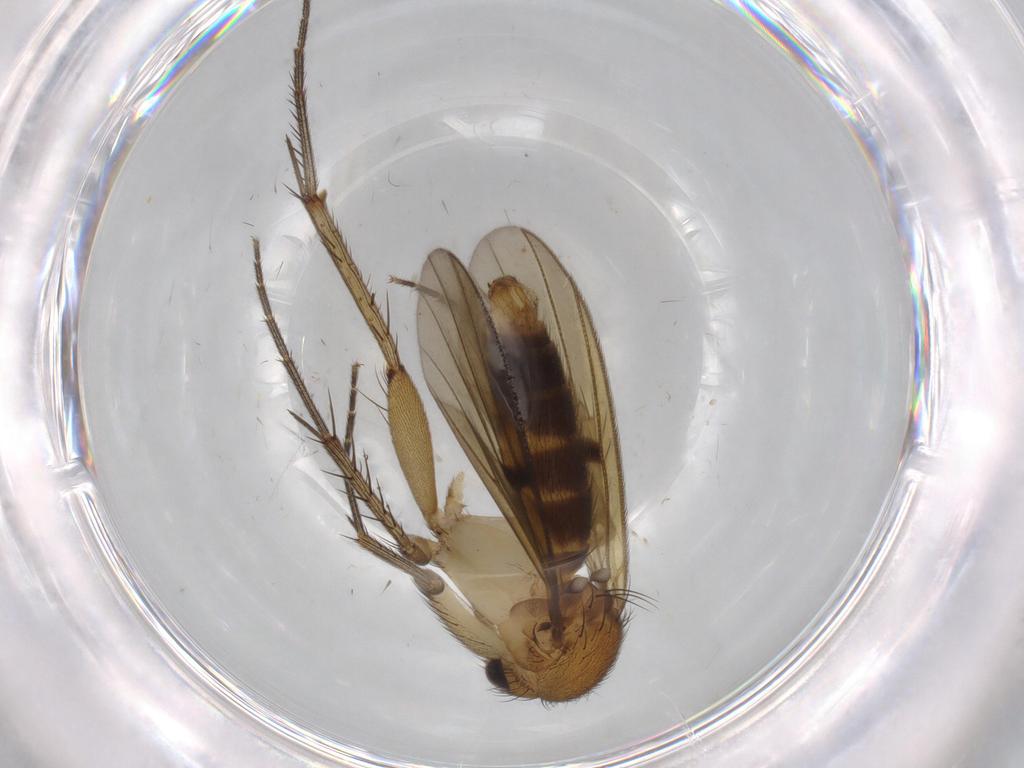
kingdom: Animalia
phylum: Arthropoda
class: Insecta
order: Diptera
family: Mycetophilidae
